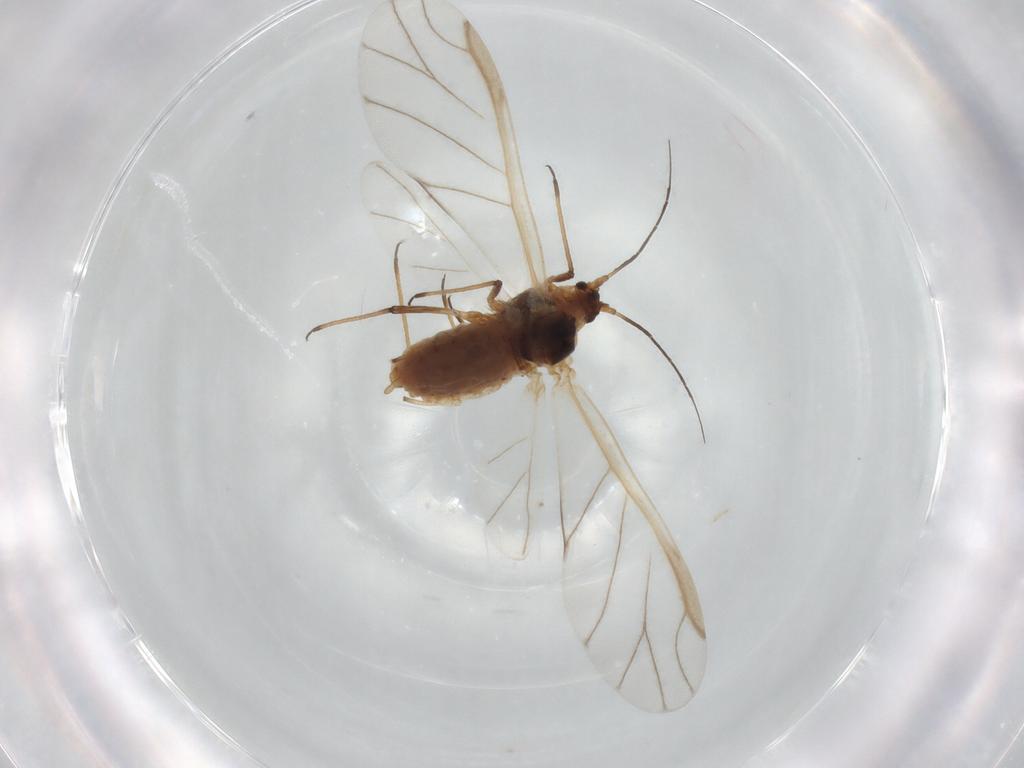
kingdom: Animalia
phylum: Arthropoda
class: Insecta
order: Hemiptera
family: Aphididae
